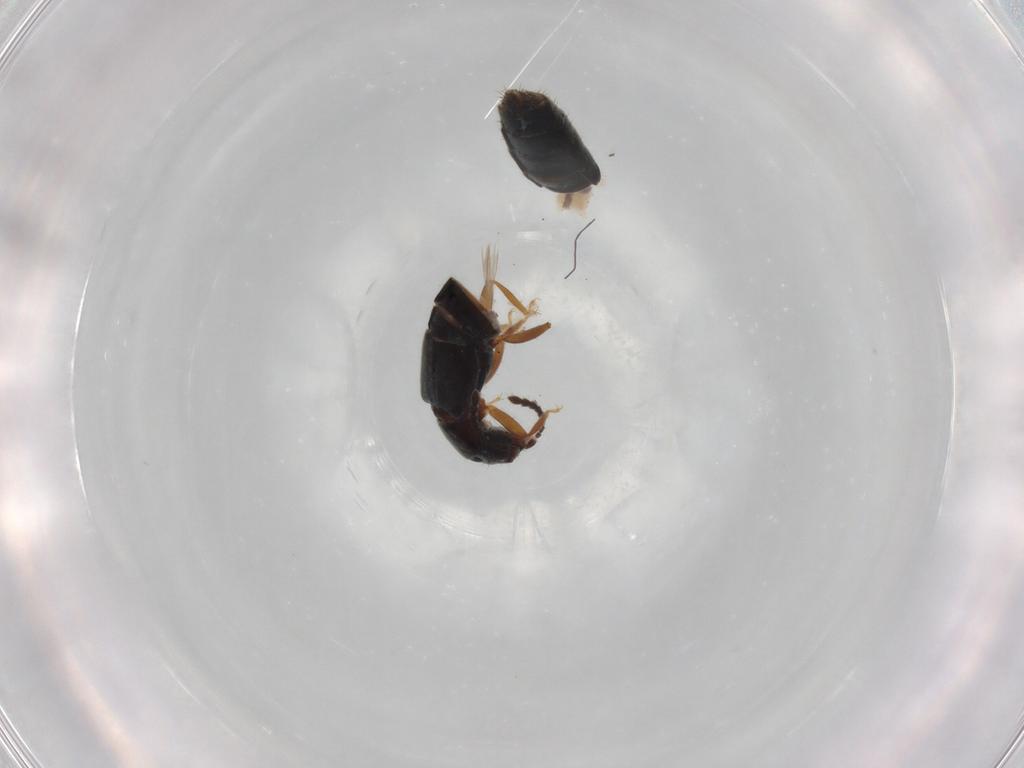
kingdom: Animalia
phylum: Arthropoda
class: Insecta
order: Coleoptera
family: Staphylinidae
